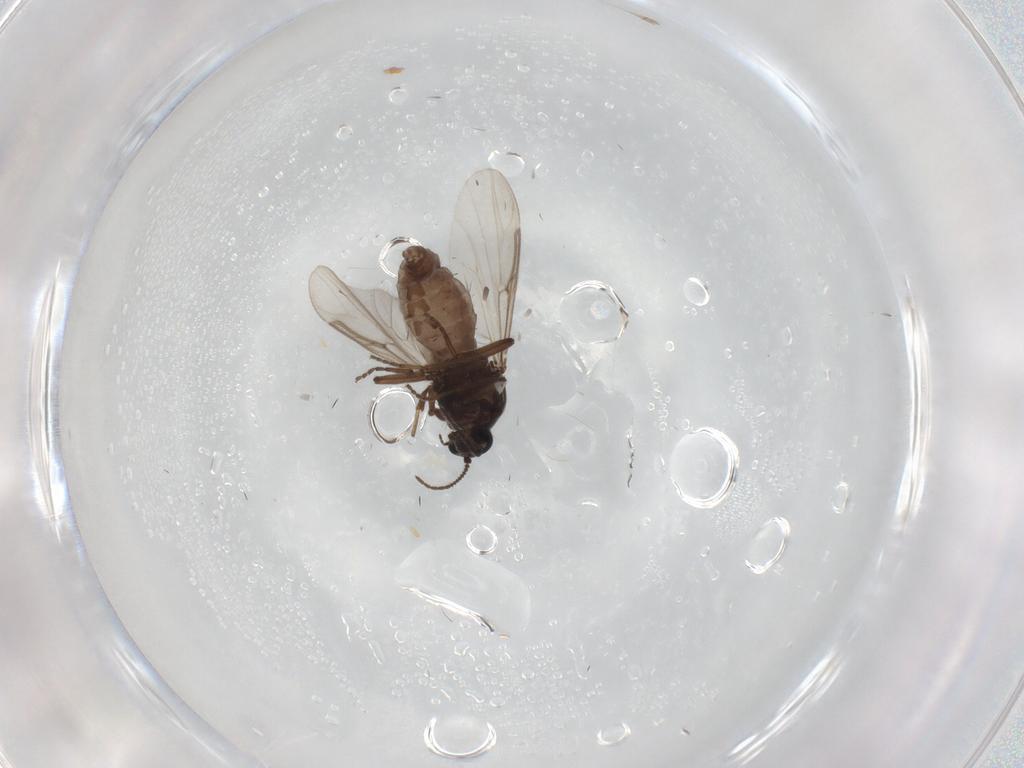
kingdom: Animalia
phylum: Arthropoda
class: Insecta
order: Diptera
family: Ceratopogonidae
